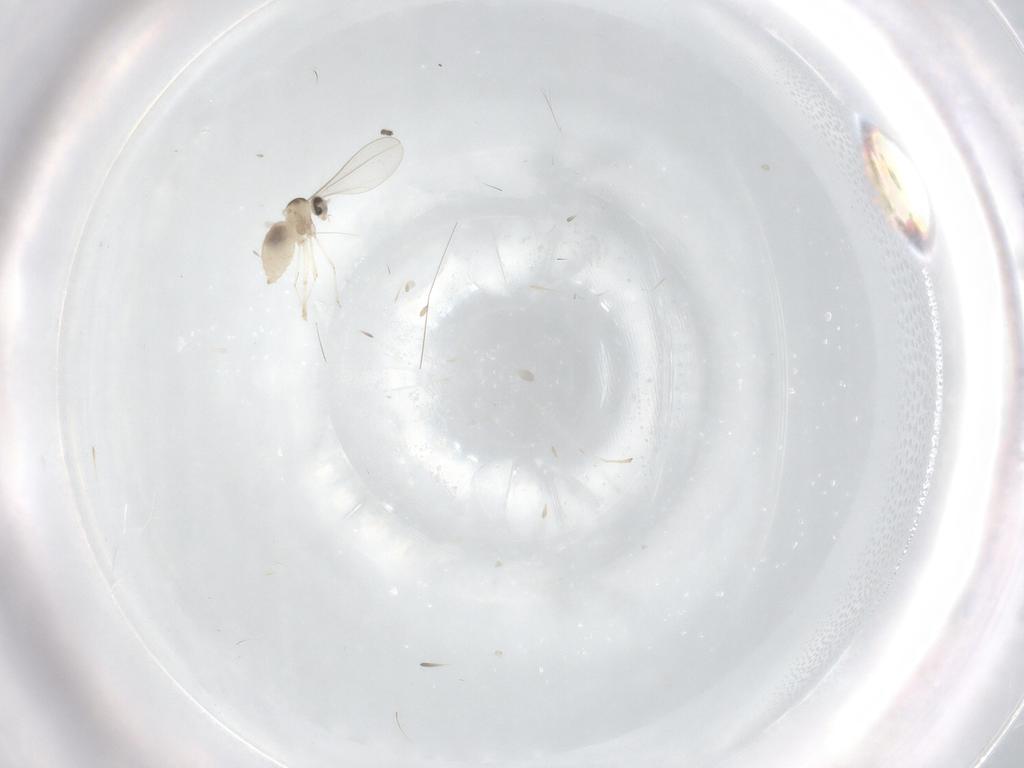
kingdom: Animalia
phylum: Arthropoda
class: Insecta
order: Diptera
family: Cecidomyiidae
